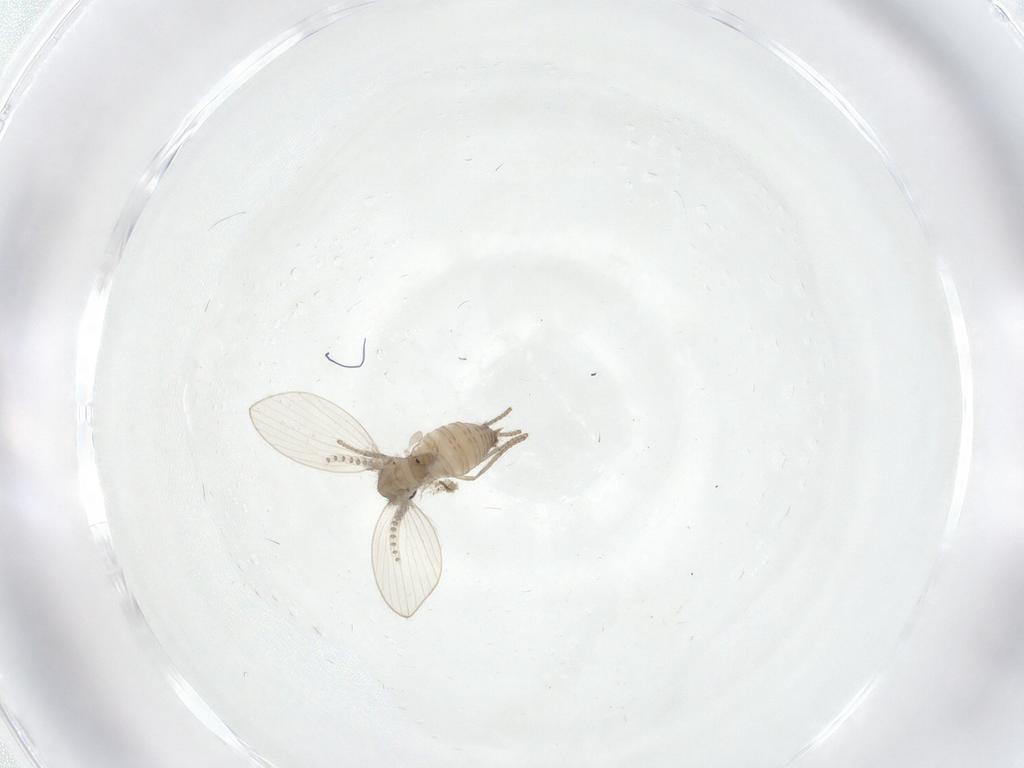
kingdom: Animalia
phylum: Arthropoda
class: Insecta
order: Diptera
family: Psychodidae
